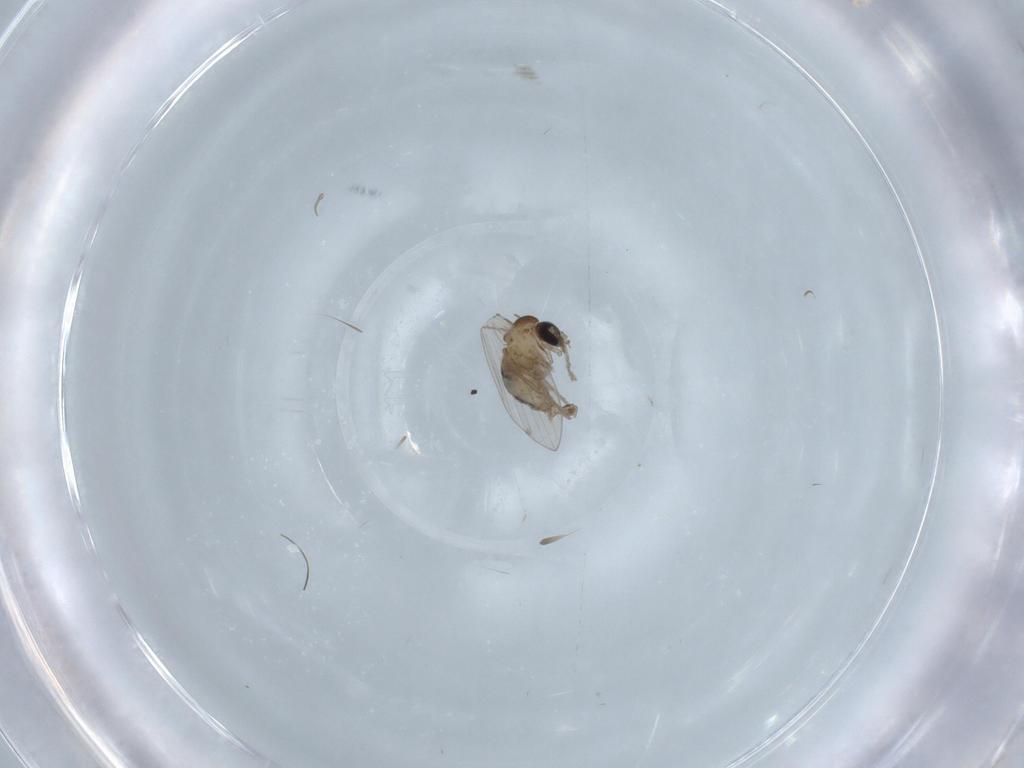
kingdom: Animalia
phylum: Arthropoda
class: Insecta
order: Diptera
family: Psychodidae
